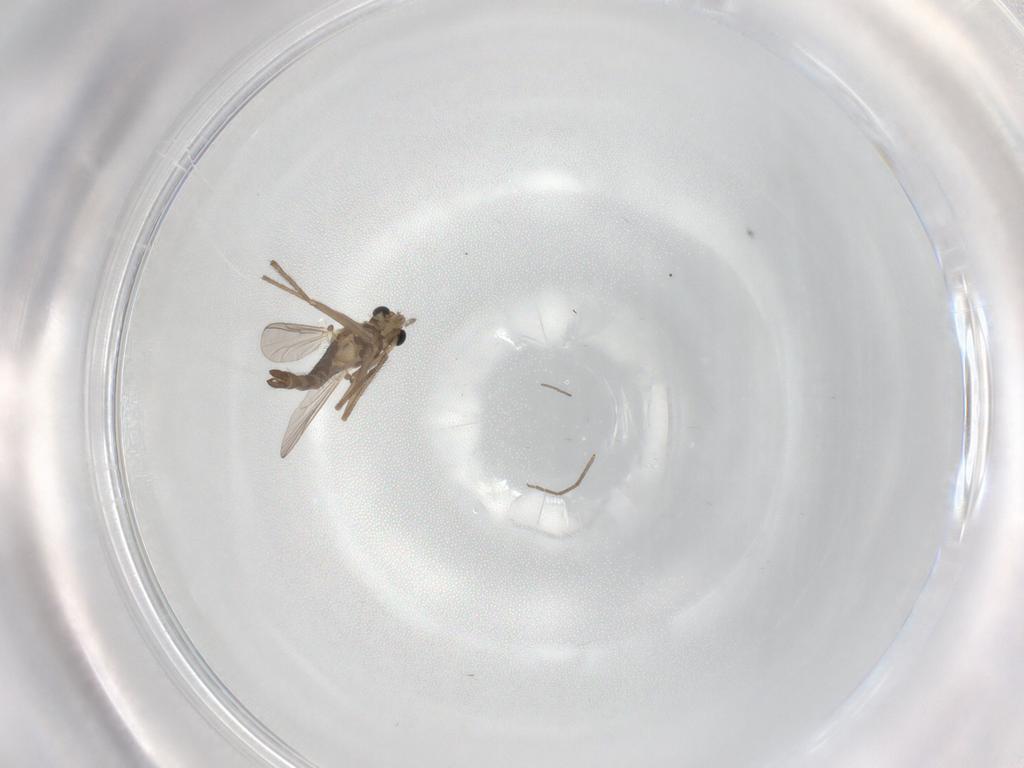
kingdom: Animalia
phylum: Arthropoda
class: Insecta
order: Diptera
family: Chironomidae
